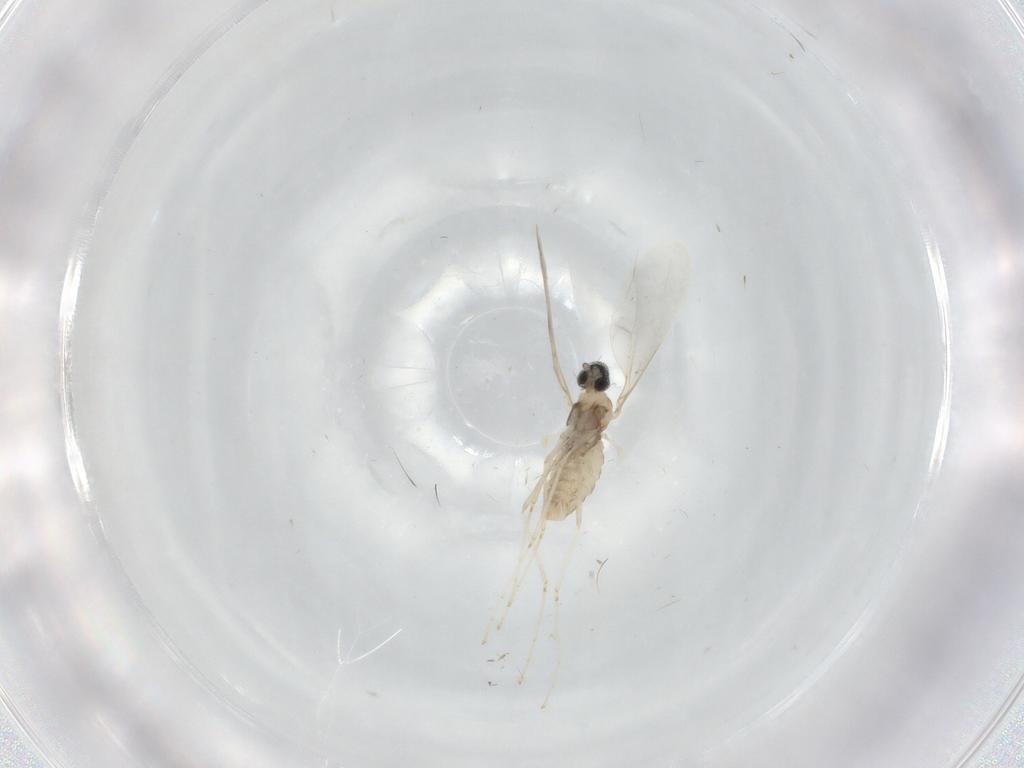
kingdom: Animalia
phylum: Arthropoda
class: Insecta
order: Diptera
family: Cecidomyiidae
